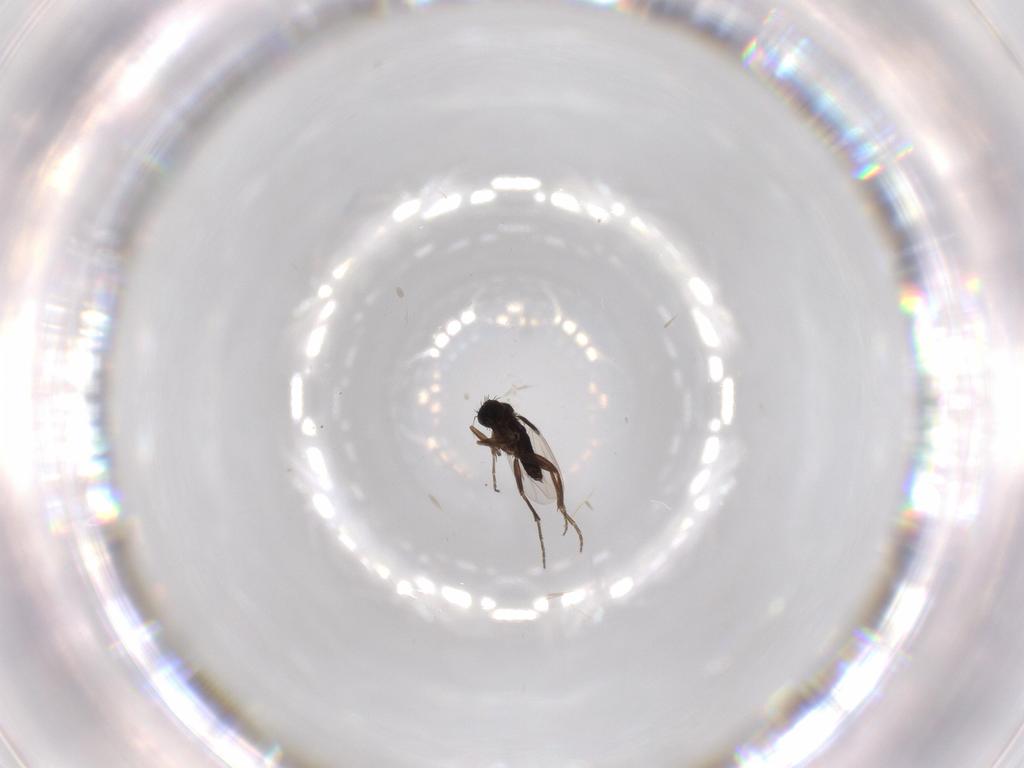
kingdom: Animalia
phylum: Arthropoda
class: Insecta
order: Diptera
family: Phoridae
